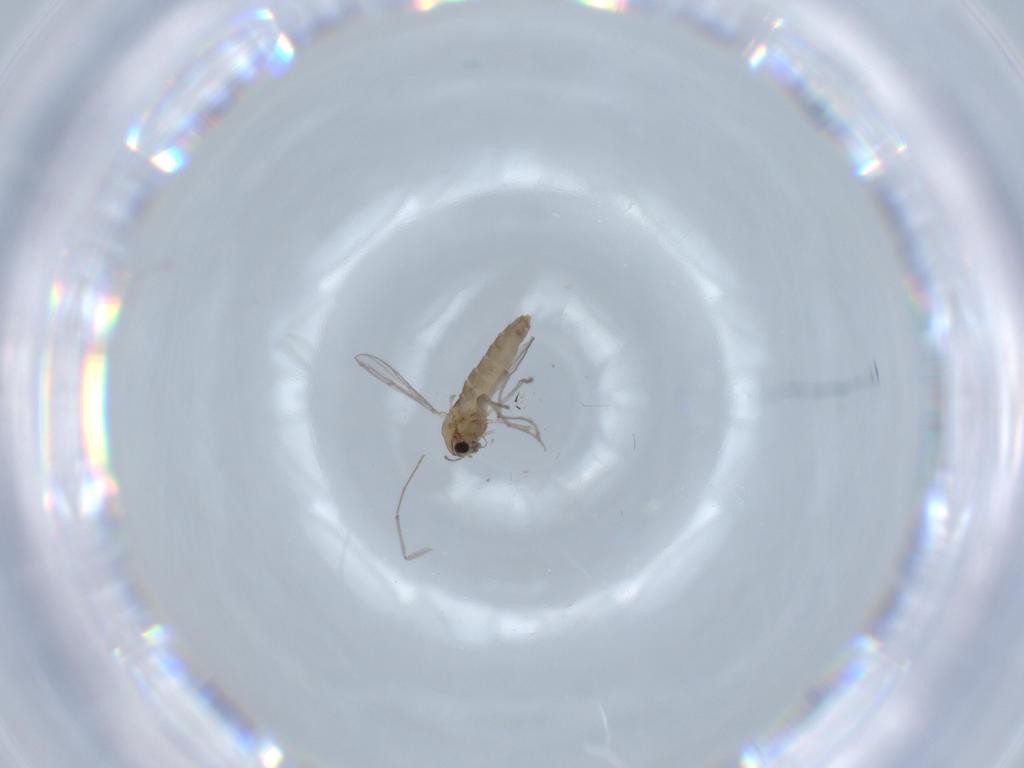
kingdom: Animalia
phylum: Arthropoda
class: Insecta
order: Diptera
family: Chironomidae
